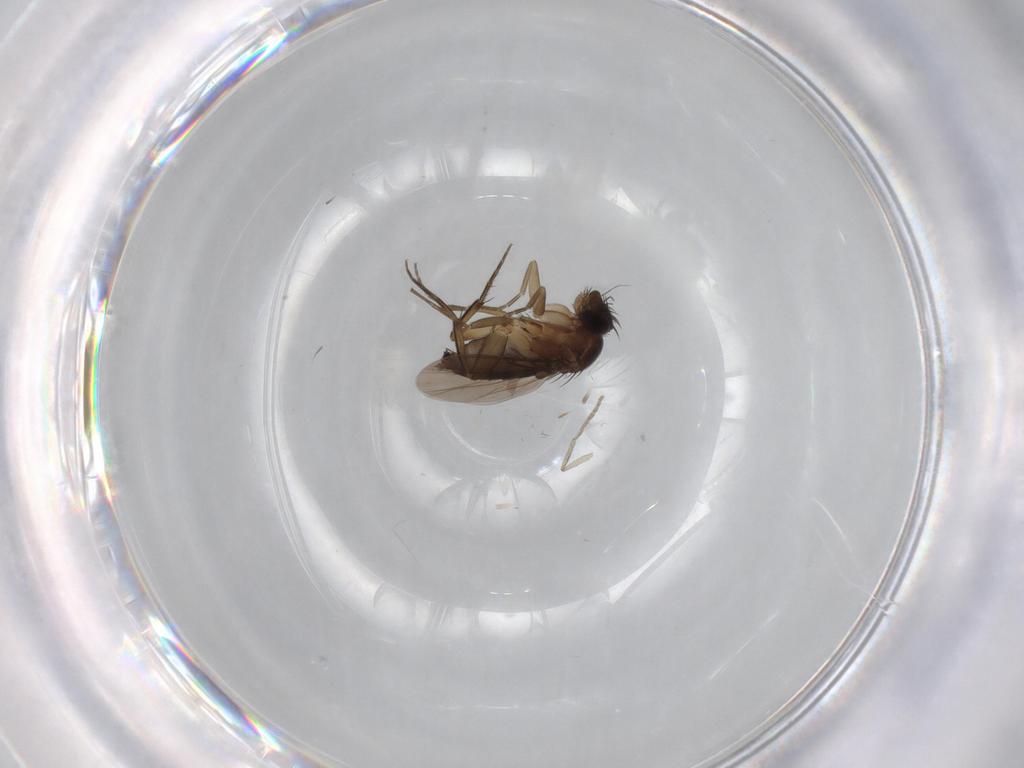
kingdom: Animalia
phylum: Arthropoda
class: Insecta
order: Diptera
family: Phoridae
